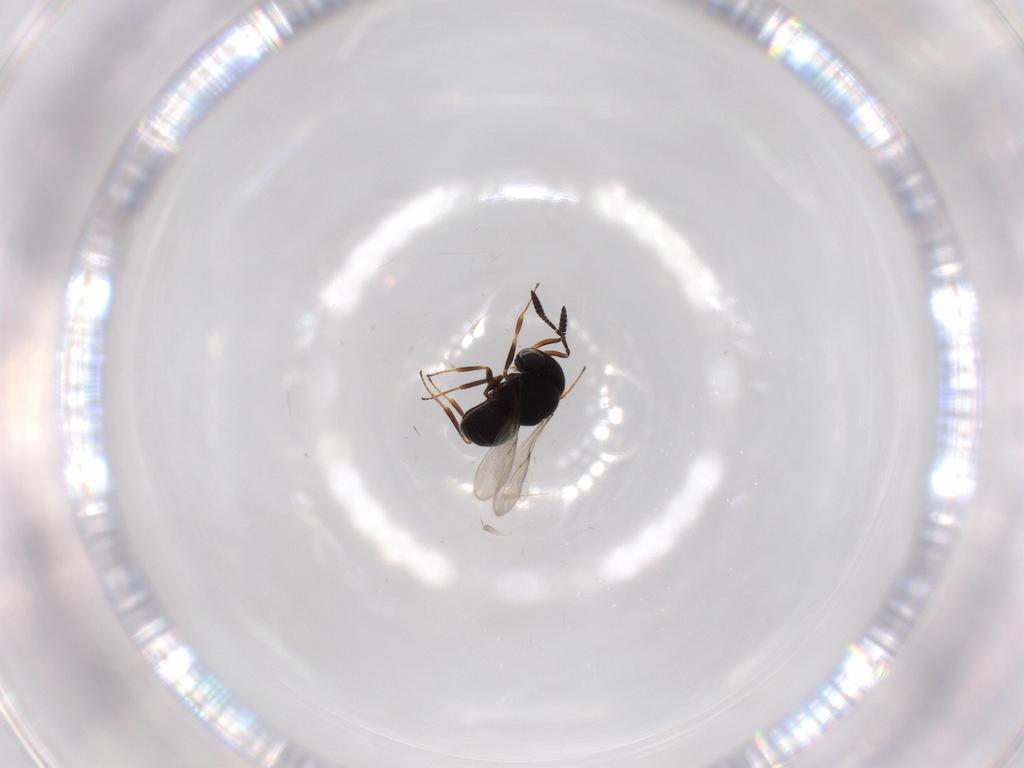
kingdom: Animalia
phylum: Arthropoda
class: Insecta
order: Hymenoptera
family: Scelionidae
